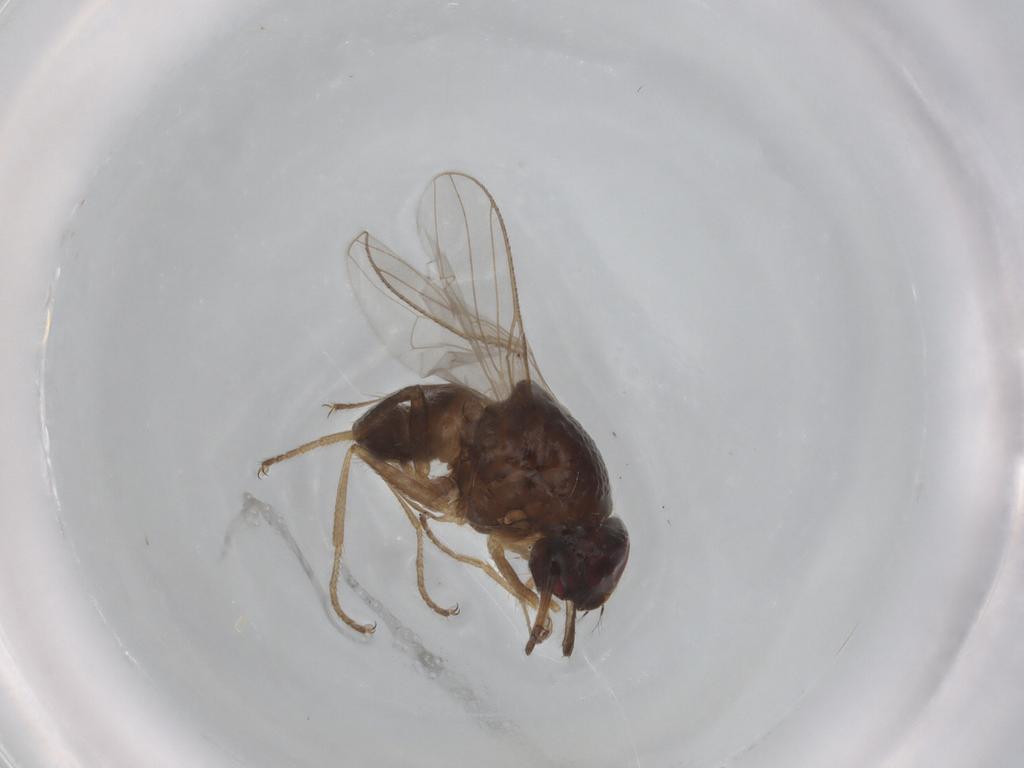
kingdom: Animalia
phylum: Arthropoda
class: Insecta
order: Diptera
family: Muscidae
